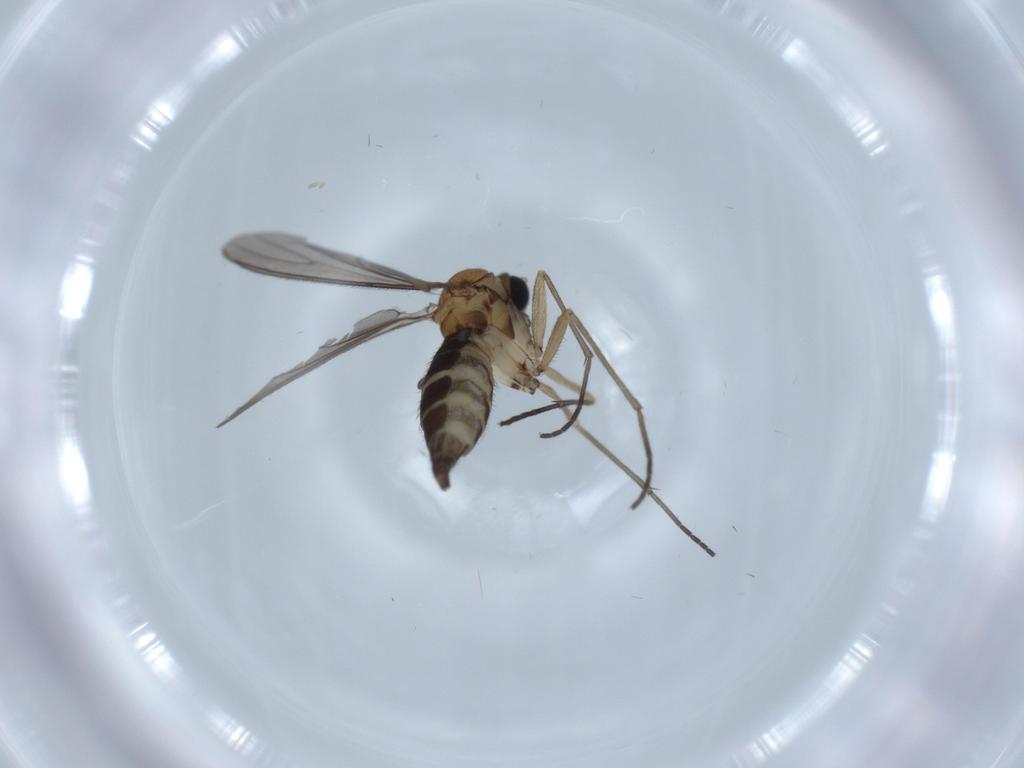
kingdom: Animalia
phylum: Arthropoda
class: Insecta
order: Diptera
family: Sciaridae
